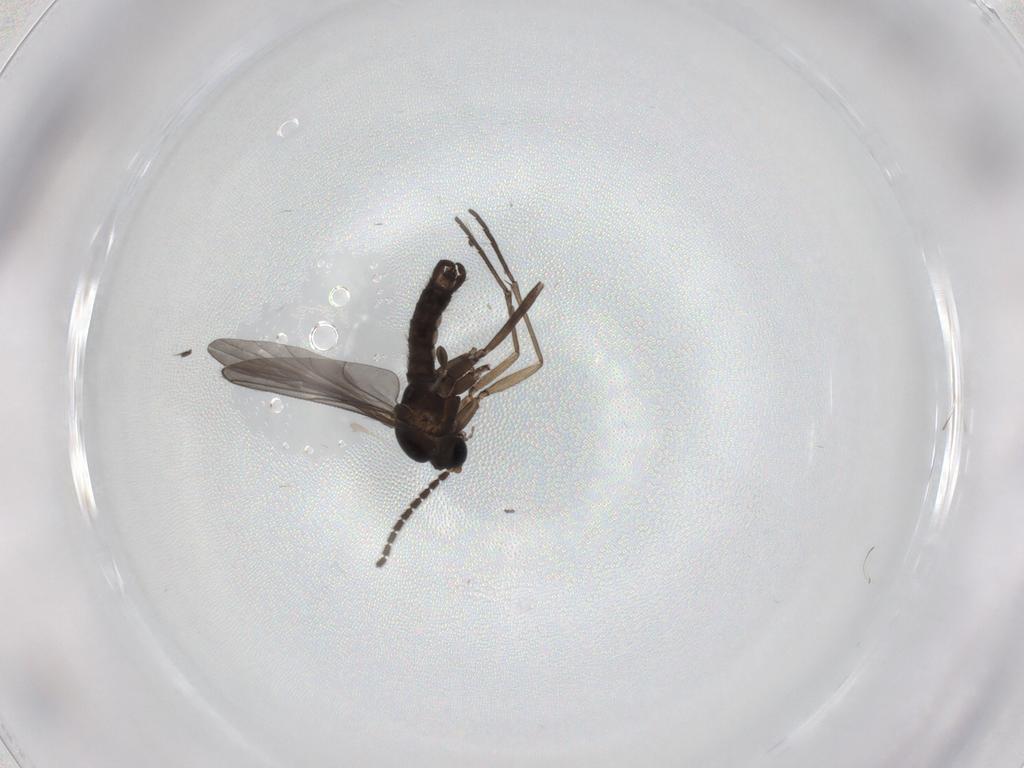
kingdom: Animalia
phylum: Arthropoda
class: Insecta
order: Diptera
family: Sciaridae
